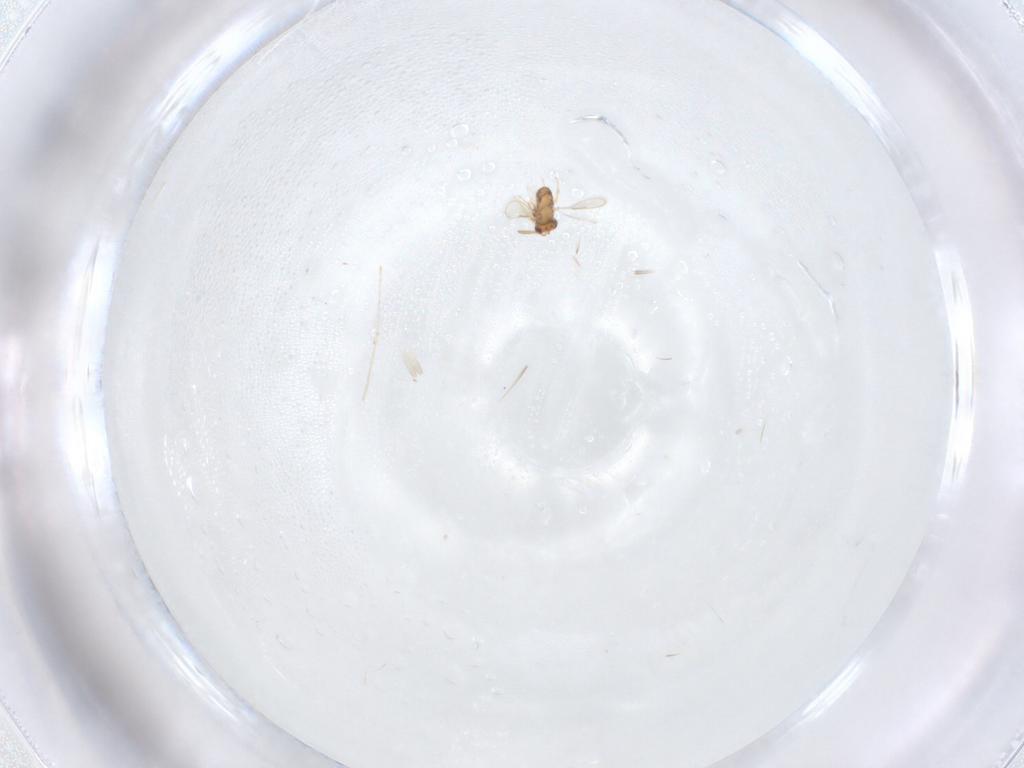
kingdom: Animalia
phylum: Arthropoda
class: Insecta
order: Hymenoptera
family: Aphelinidae
